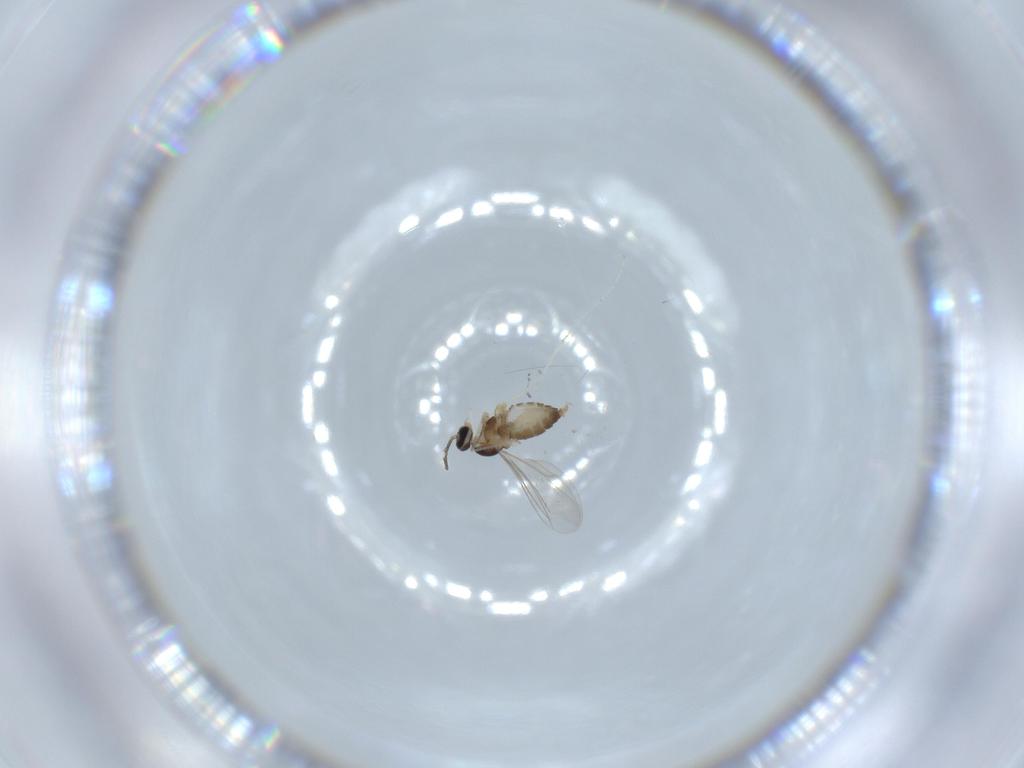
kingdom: Animalia
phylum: Arthropoda
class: Insecta
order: Diptera
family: Cecidomyiidae
